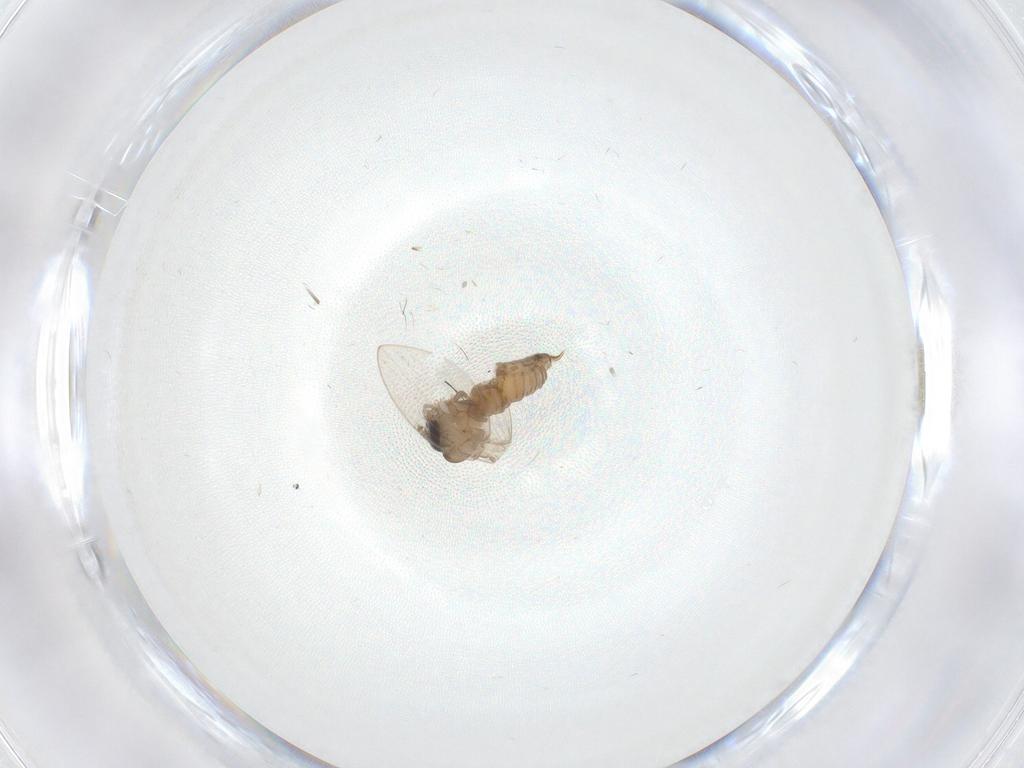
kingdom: Animalia
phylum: Arthropoda
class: Insecta
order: Diptera
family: Psychodidae
